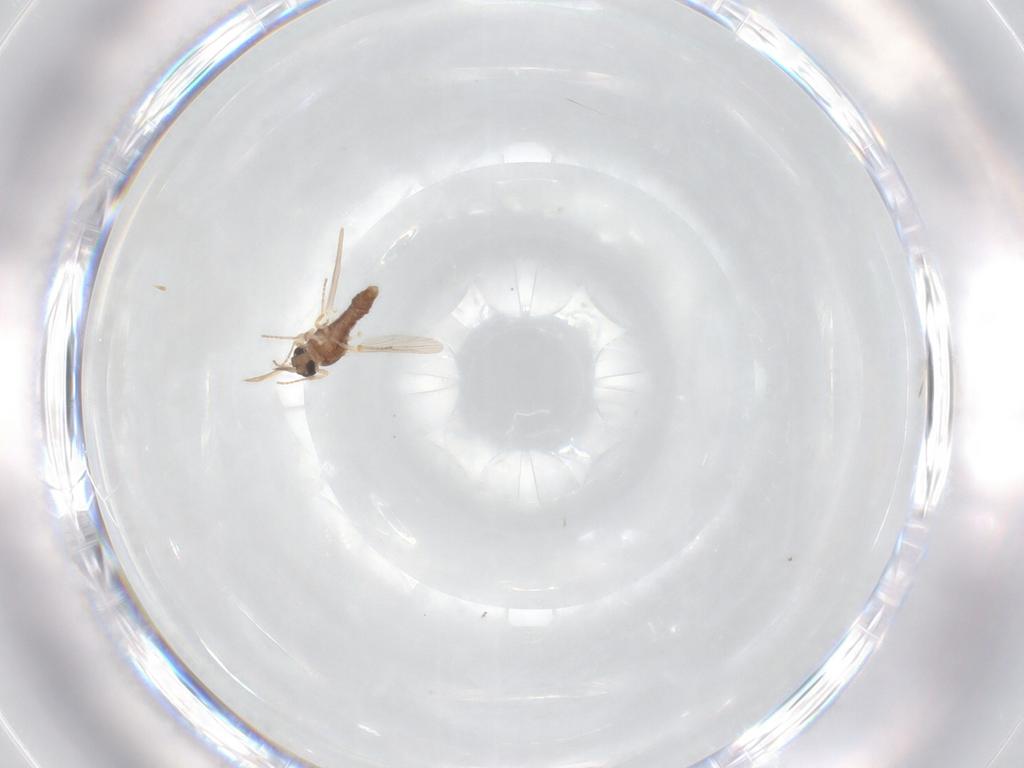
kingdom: Animalia
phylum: Arthropoda
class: Insecta
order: Diptera
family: Ceratopogonidae
